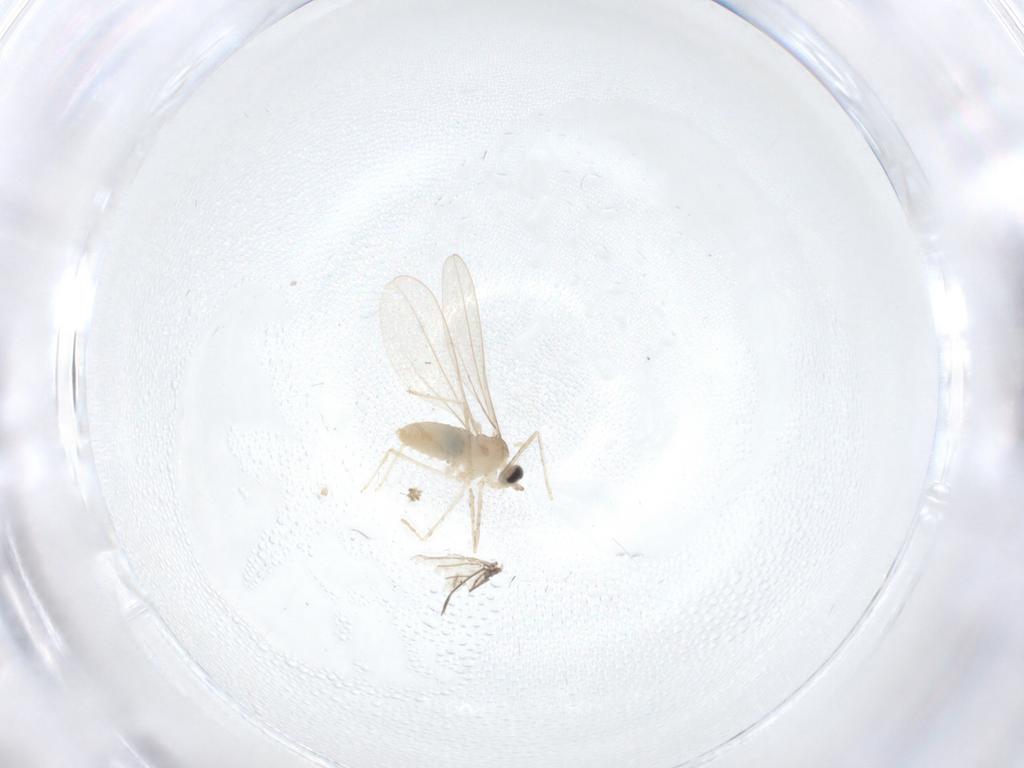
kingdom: Animalia
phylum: Arthropoda
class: Insecta
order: Diptera
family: Cecidomyiidae
